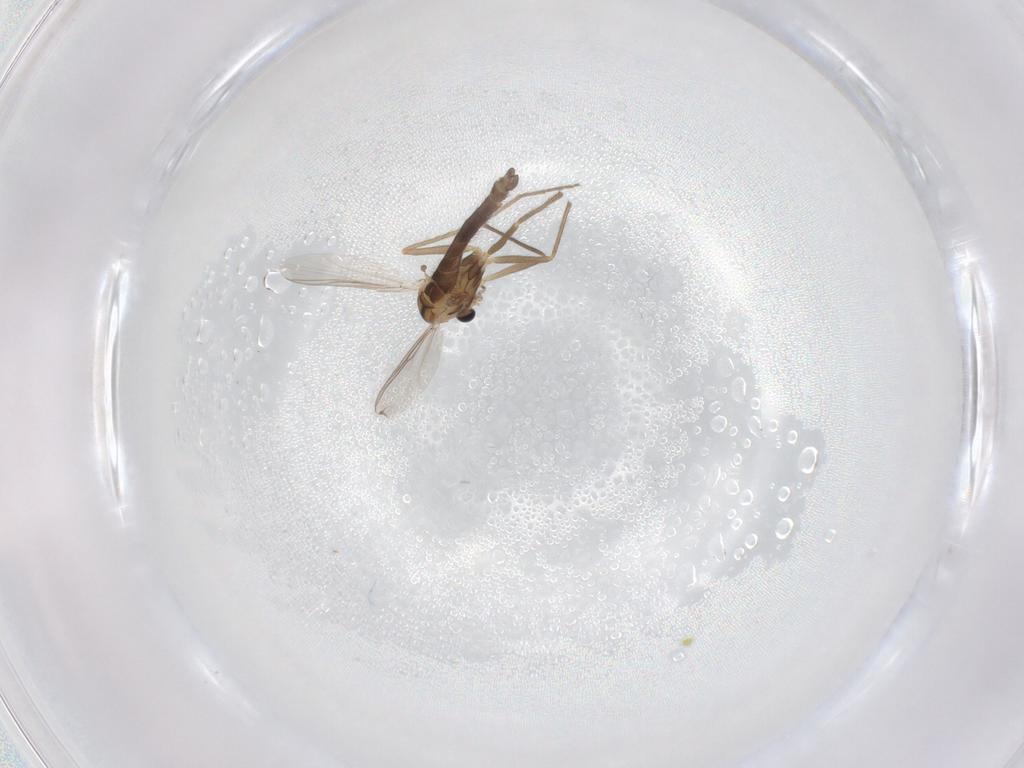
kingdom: Animalia
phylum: Arthropoda
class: Insecta
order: Diptera
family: Chironomidae
